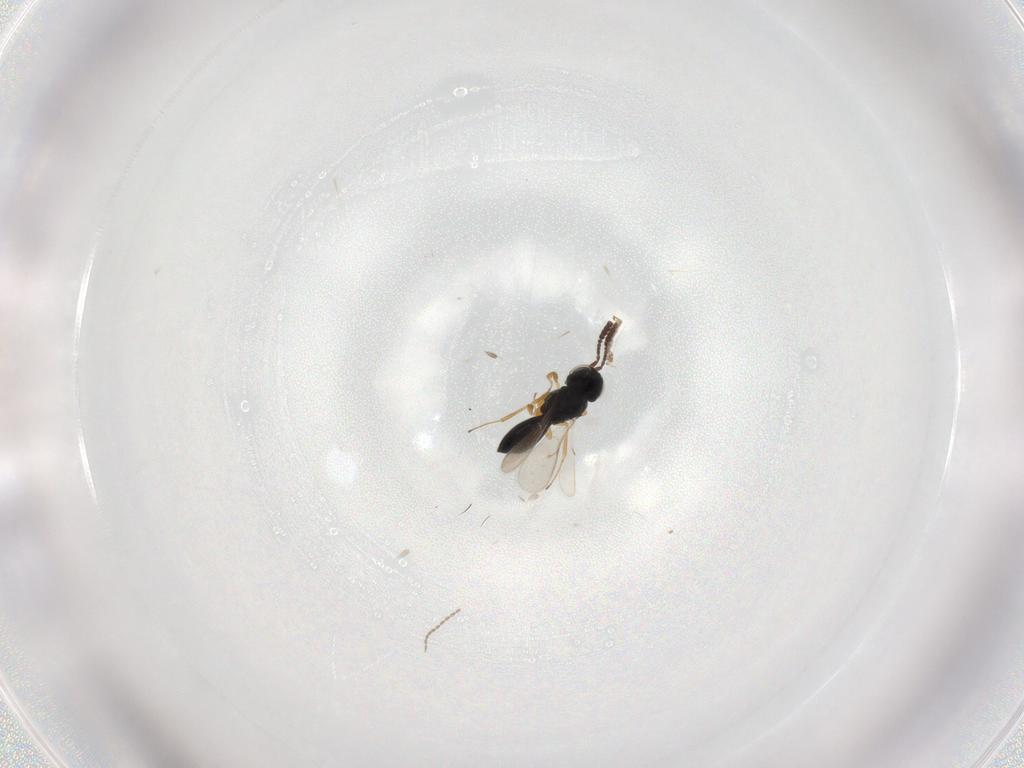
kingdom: Animalia
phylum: Arthropoda
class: Insecta
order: Hymenoptera
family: Scelionidae
